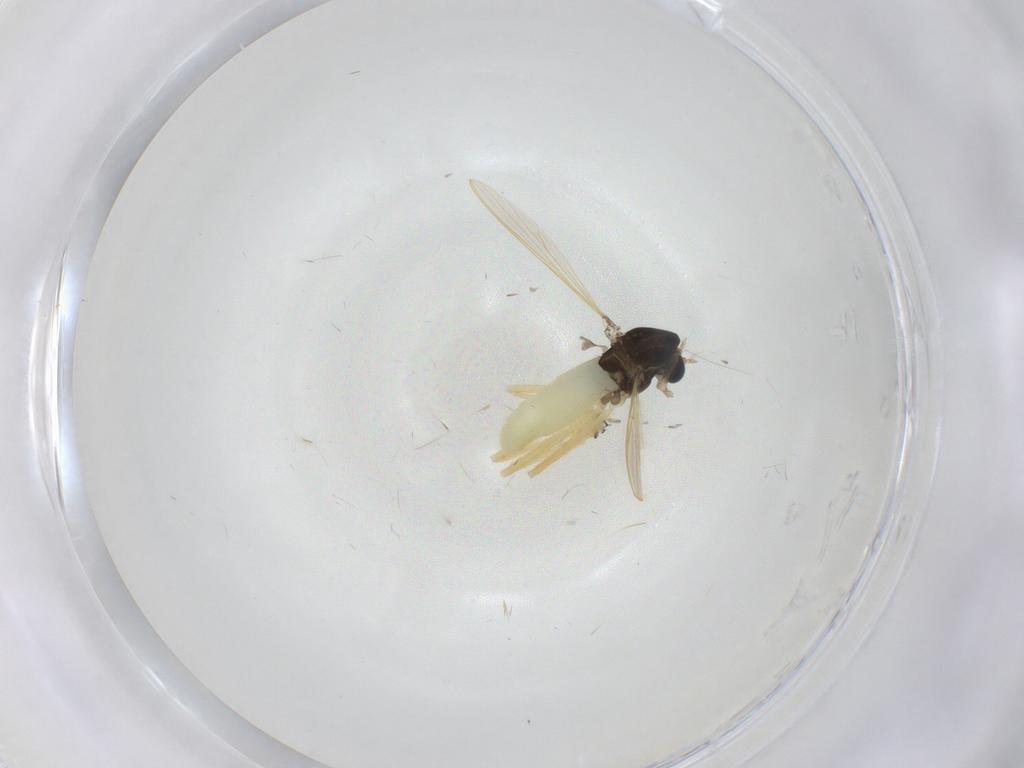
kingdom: Animalia
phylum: Arthropoda
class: Insecta
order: Diptera
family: Chironomidae
